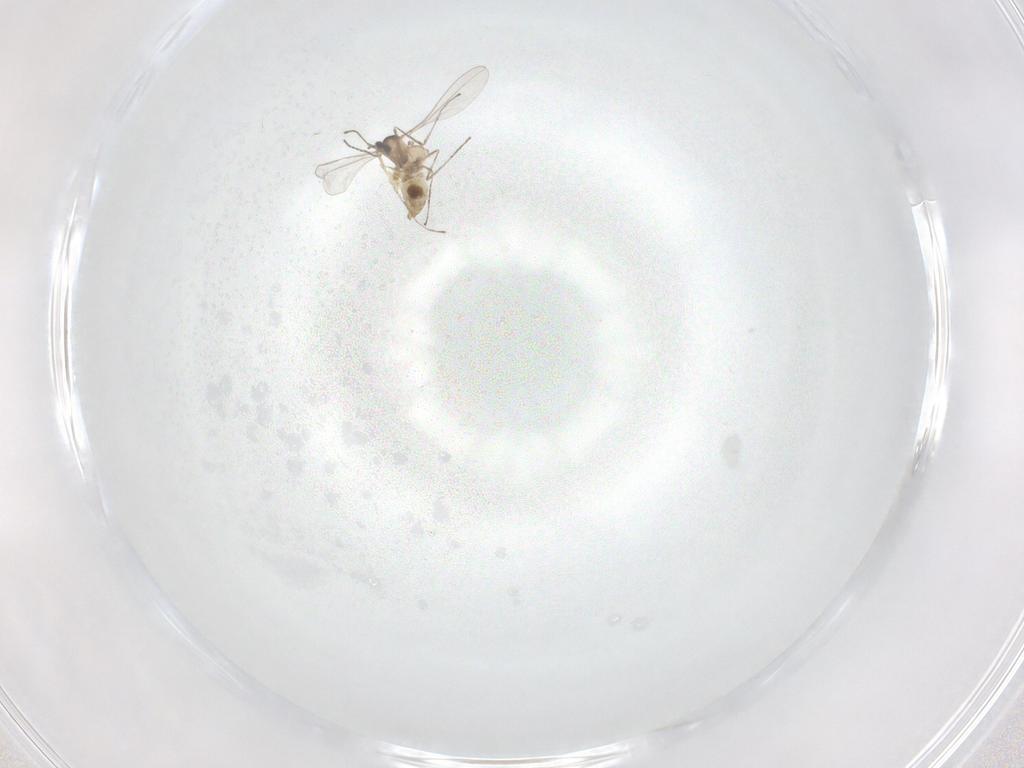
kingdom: Animalia
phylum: Arthropoda
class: Insecta
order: Diptera
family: Cecidomyiidae
